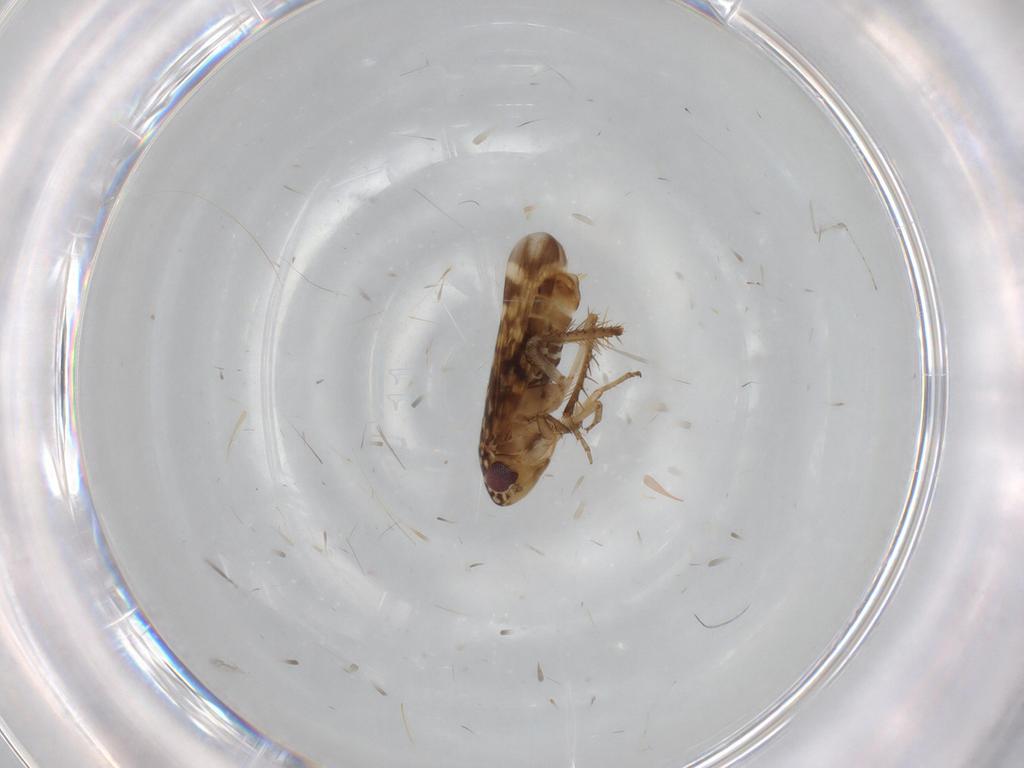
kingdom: Animalia
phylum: Arthropoda
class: Insecta
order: Hemiptera
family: Cicadellidae
